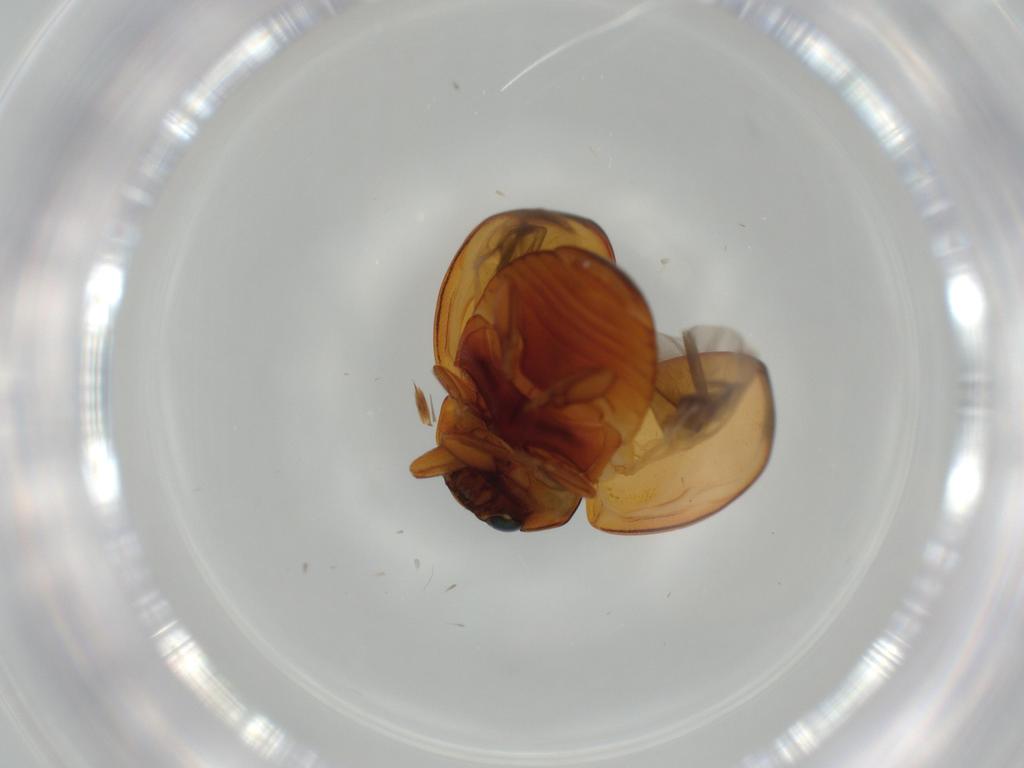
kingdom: Animalia
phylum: Arthropoda
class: Insecta
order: Coleoptera
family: Coccinellidae
